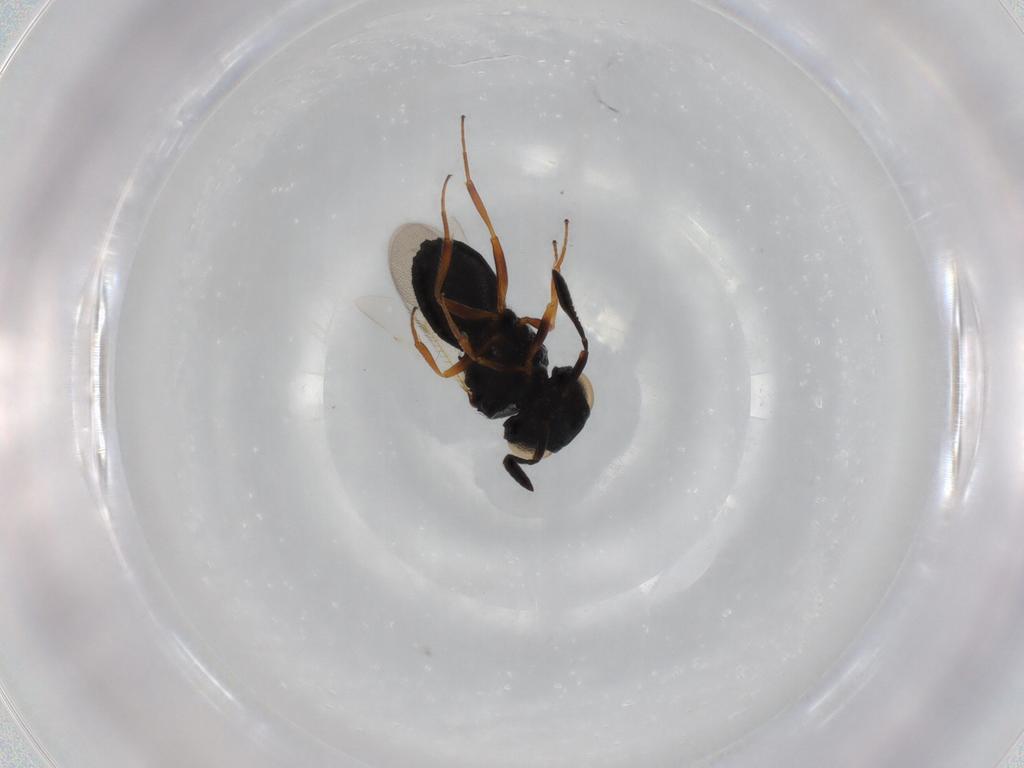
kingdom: Animalia
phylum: Arthropoda
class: Insecta
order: Hymenoptera
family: Scelionidae
